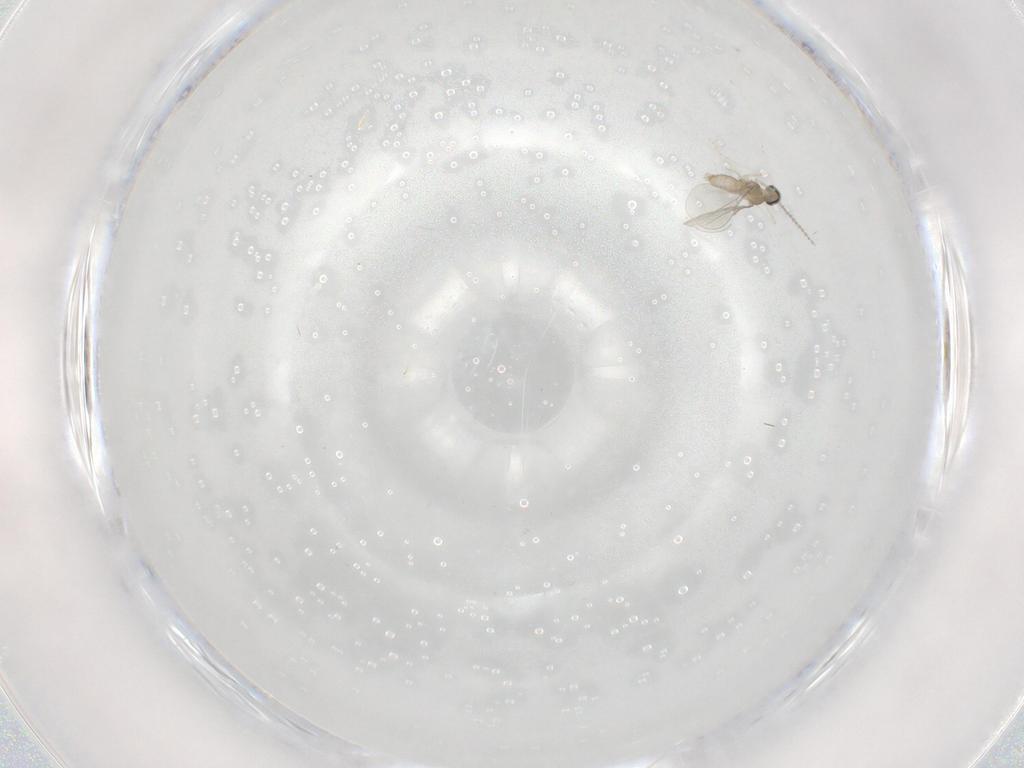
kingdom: Animalia
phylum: Arthropoda
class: Insecta
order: Diptera
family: Cecidomyiidae
